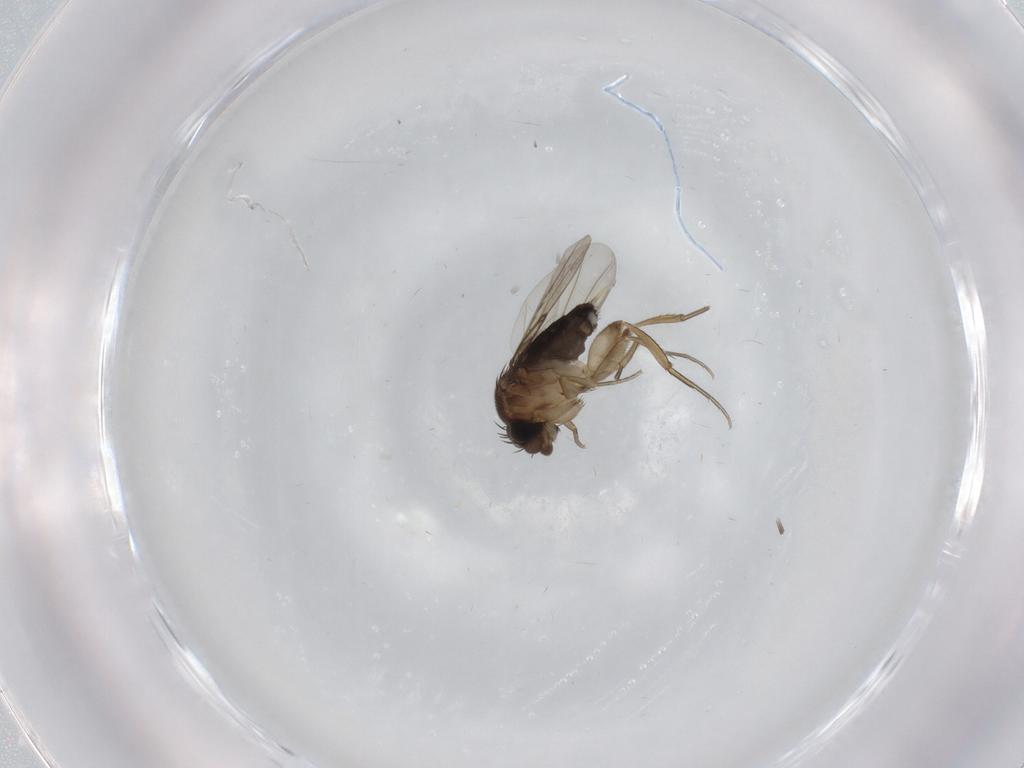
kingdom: Animalia
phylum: Arthropoda
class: Insecta
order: Diptera
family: Phoridae
